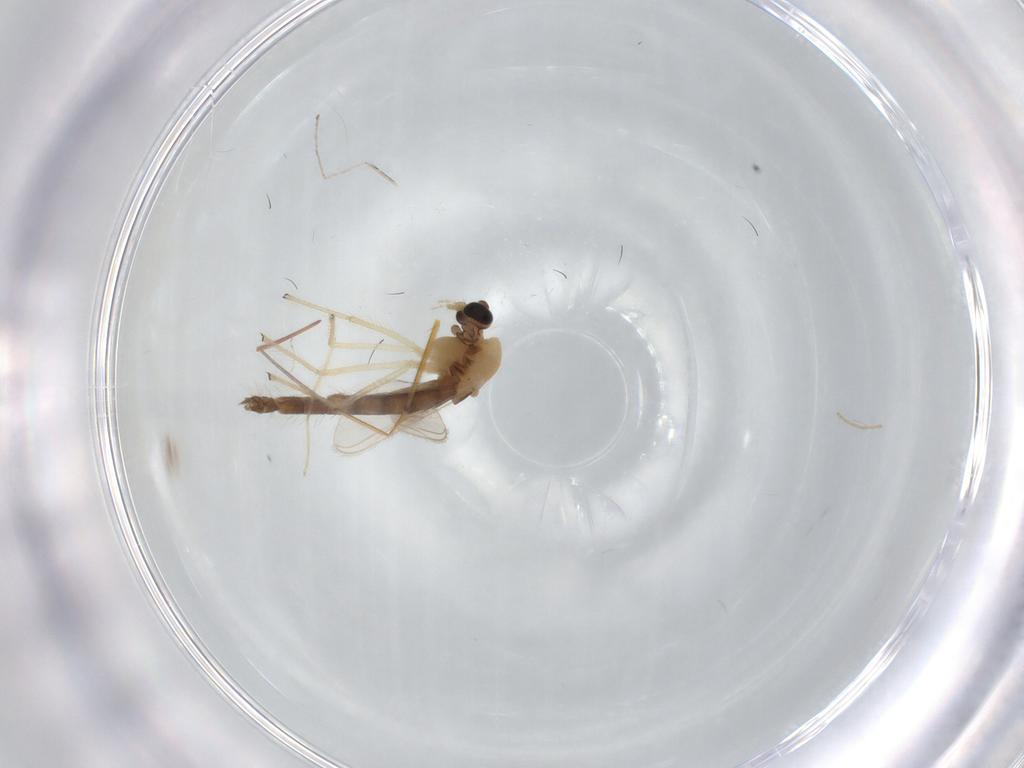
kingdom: Animalia
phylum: Arthropoda
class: Insecta
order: Diptera
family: Chironomidae
